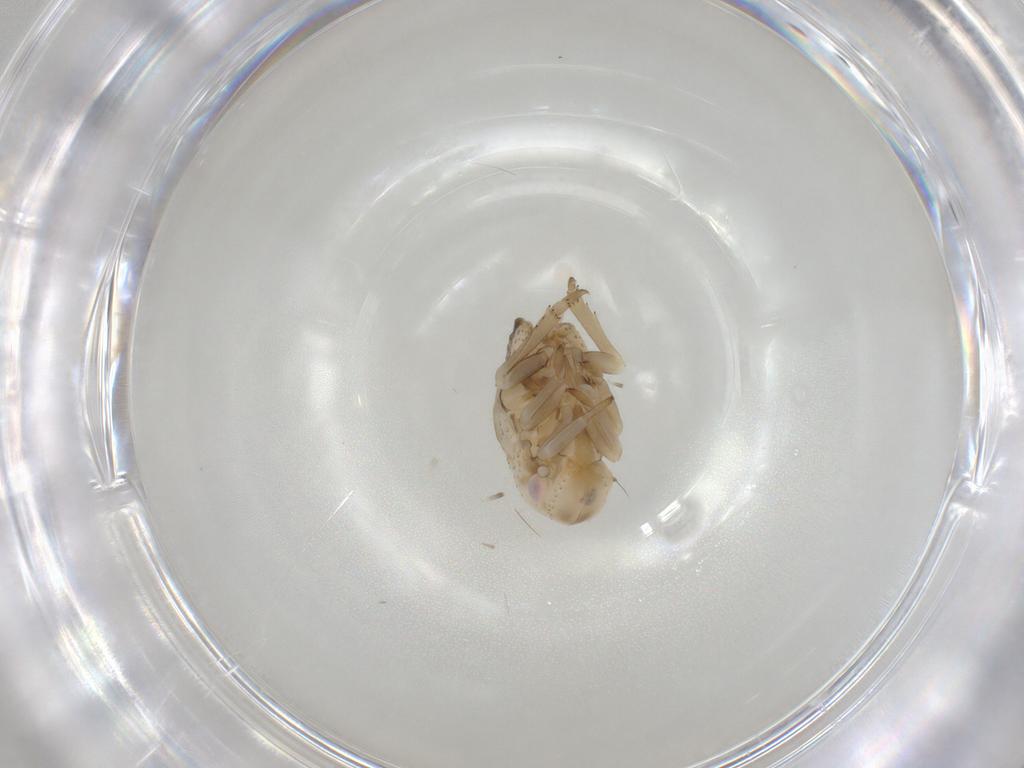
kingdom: Animalia
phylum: Arthropoda
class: Insecta
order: Hemiptera
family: Flatidae
